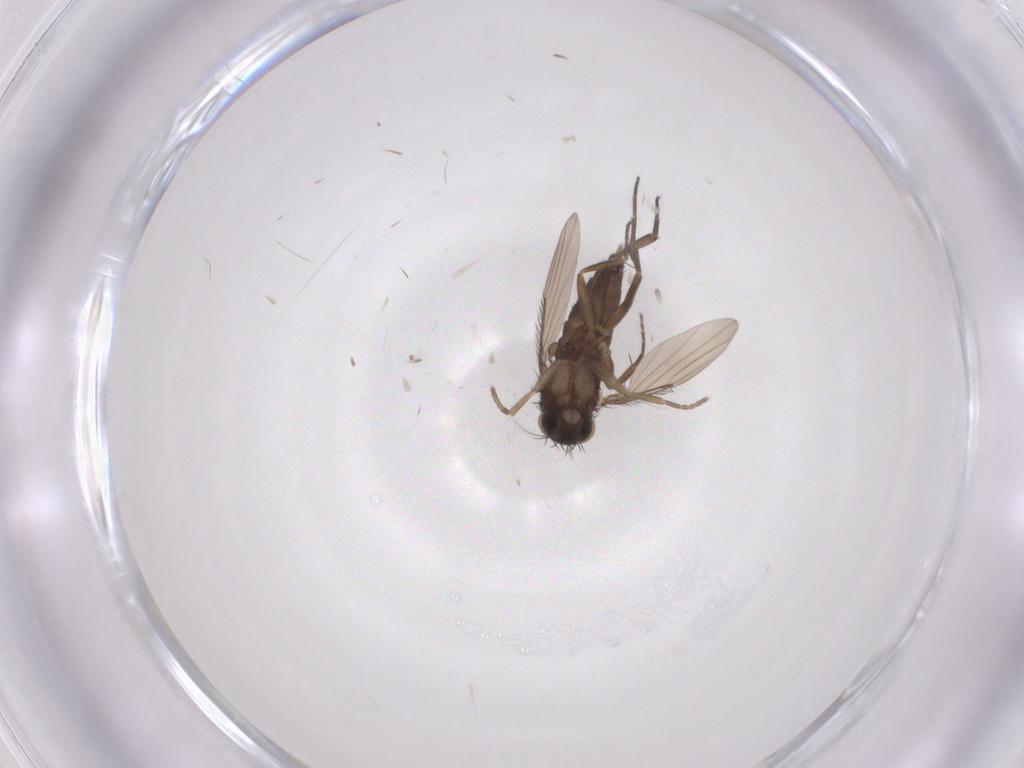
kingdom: Animalia
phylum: Arthropoda
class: Insecta
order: Diptera
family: Phoridae
